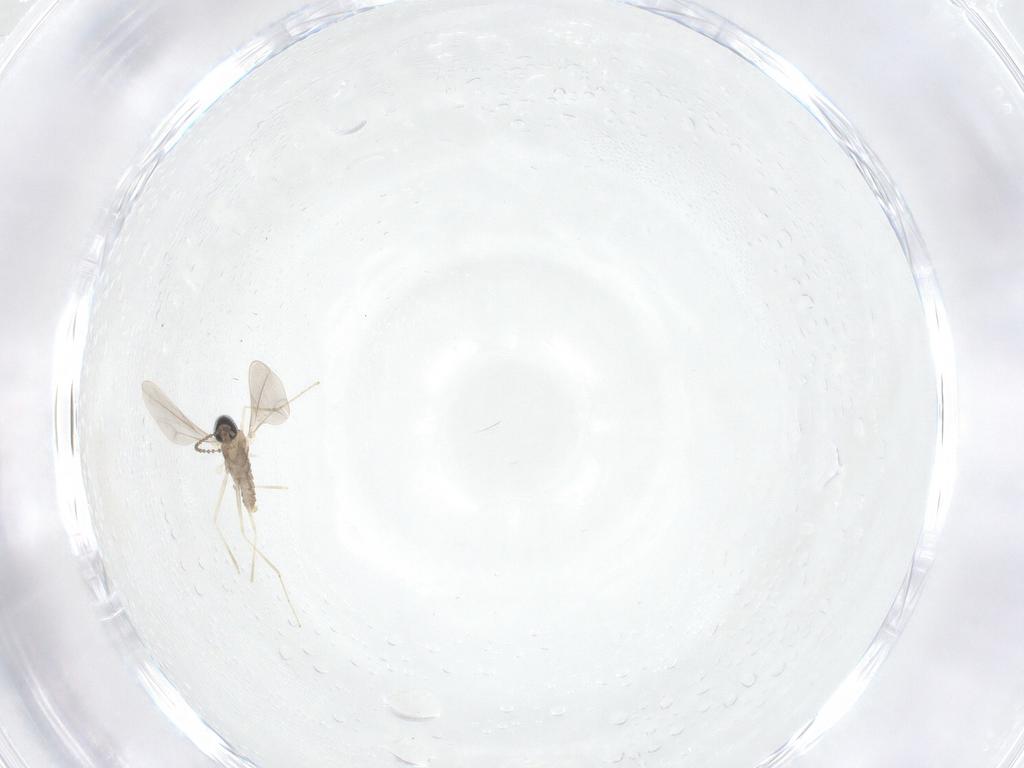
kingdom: Animalia
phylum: Arthropoda
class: Insecta
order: Diptera
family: Cecidomyiidae
